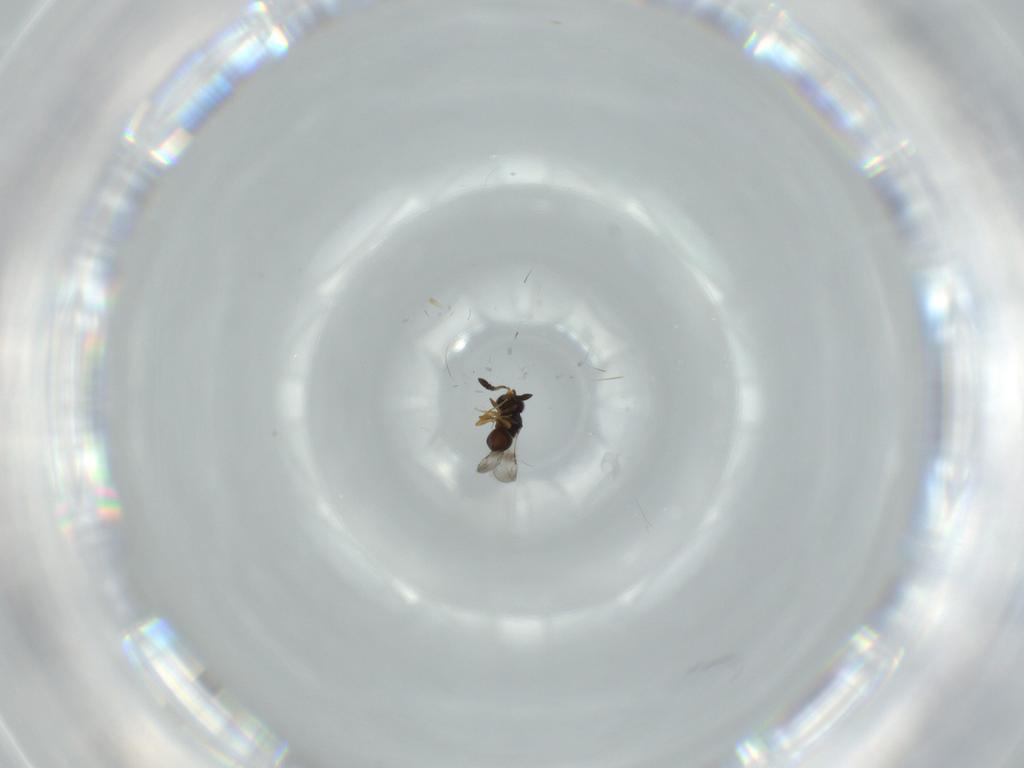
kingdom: Animalia
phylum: Arthropoda
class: Insecta
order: Hymenoptera
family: Ceraphronidae
